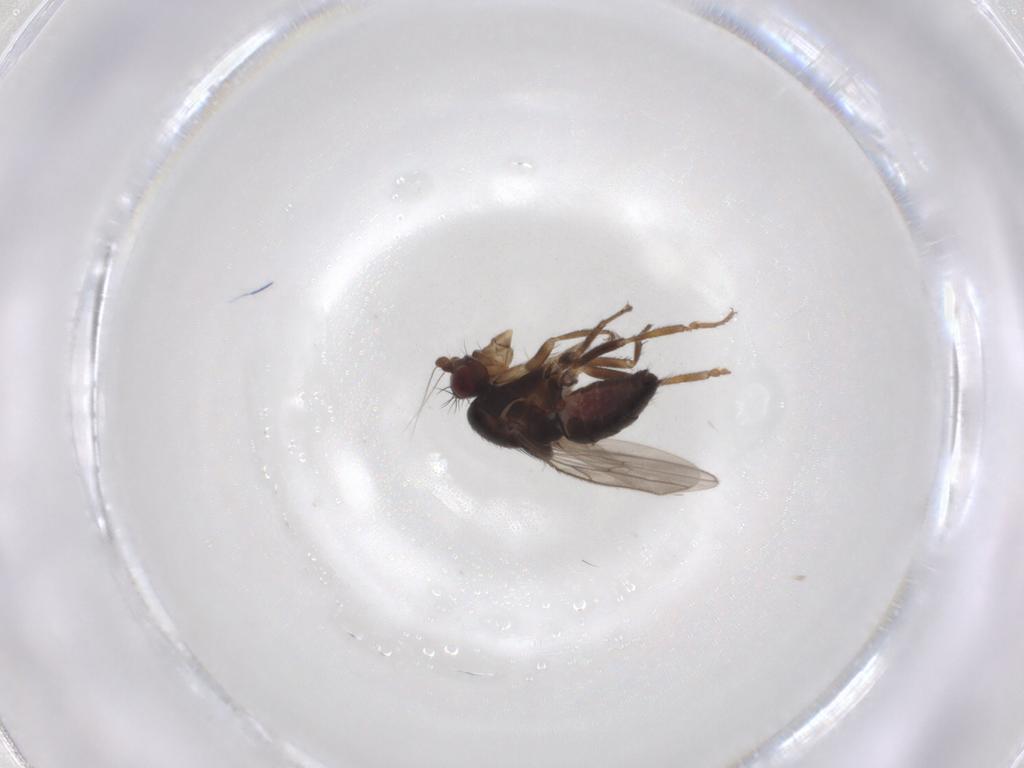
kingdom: Animalia
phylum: Arthropoda
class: Insecta
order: Diptera
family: Sphaeroceridae
